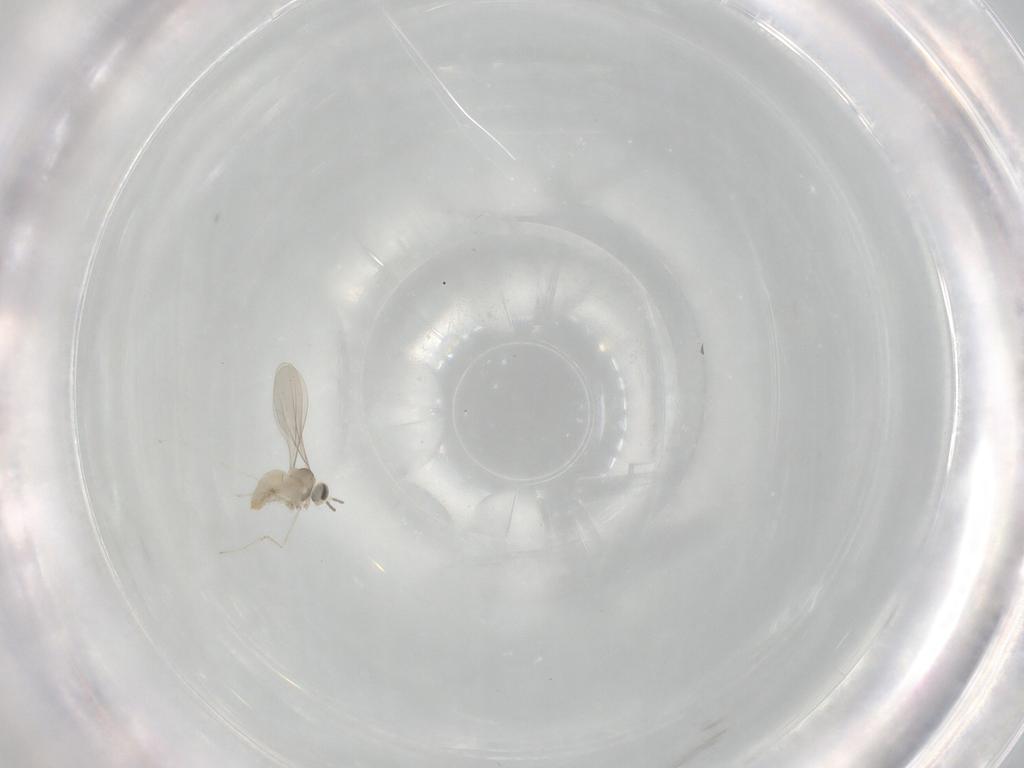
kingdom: Animalia
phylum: Arthropoda
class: Insecta
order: Diptera
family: Cecidomyiidae
